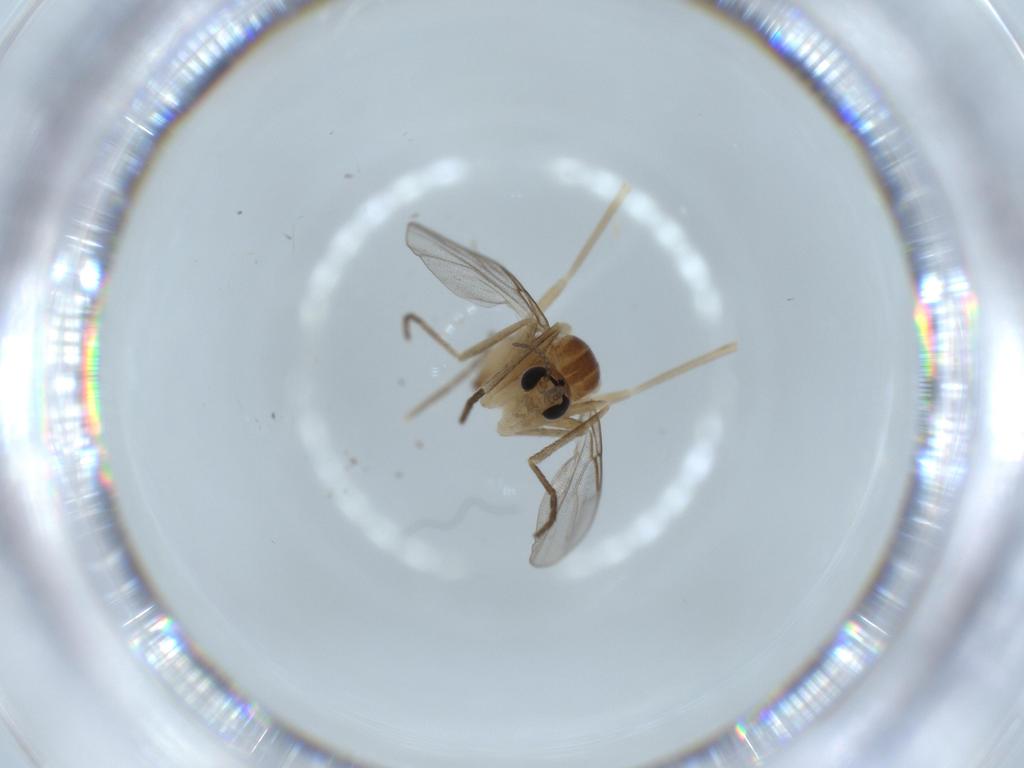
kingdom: Animalia
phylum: Arthropoda
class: Insecta
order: Diptera
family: Cecidomyiidae
